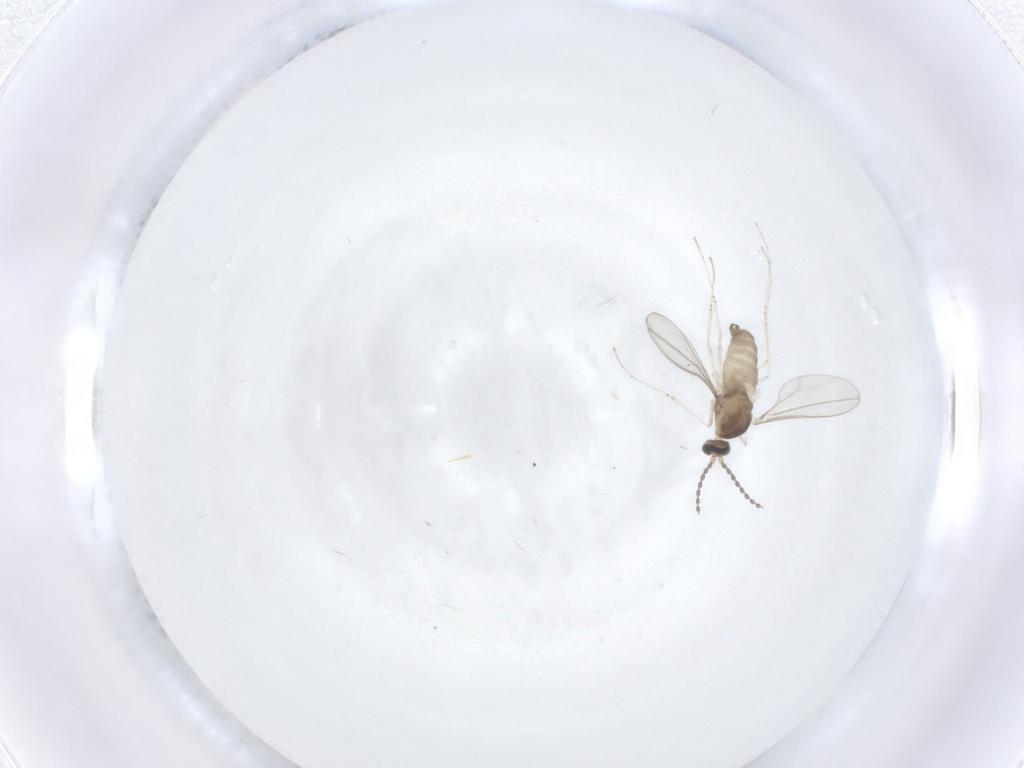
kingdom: Animalia
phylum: Arthropoda
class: Insecta
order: Diptera
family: Cecidomyiidae
